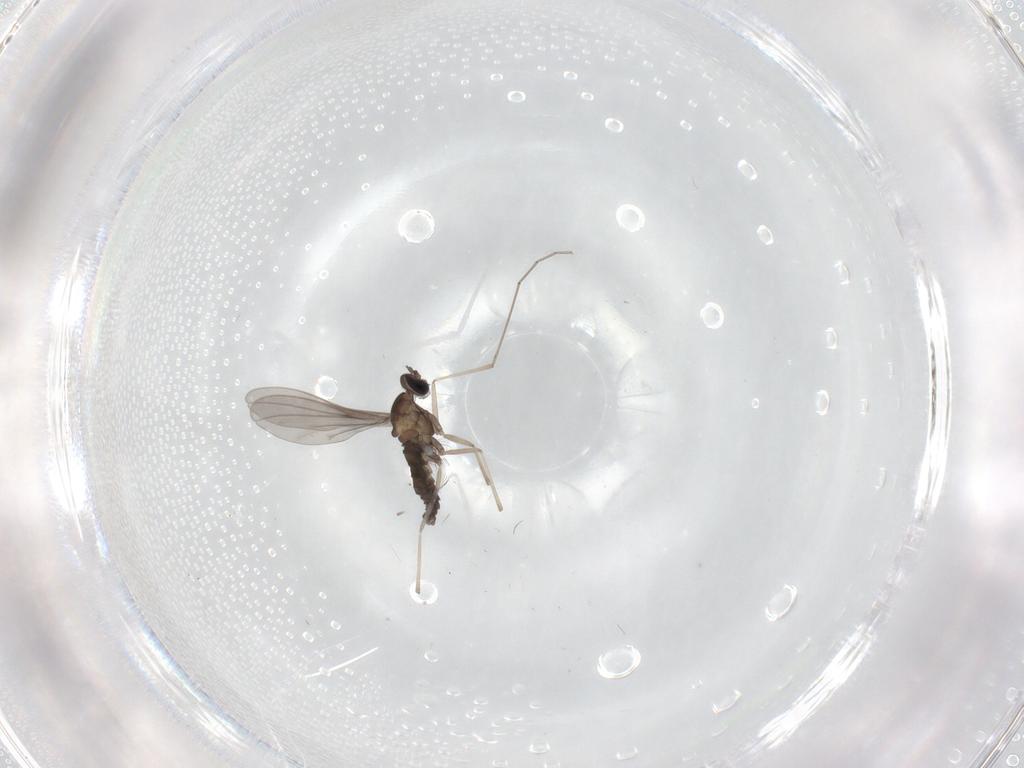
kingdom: Animalia
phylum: Arthropoda
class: Insecta
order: Diptera
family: Cecidomyiidae
